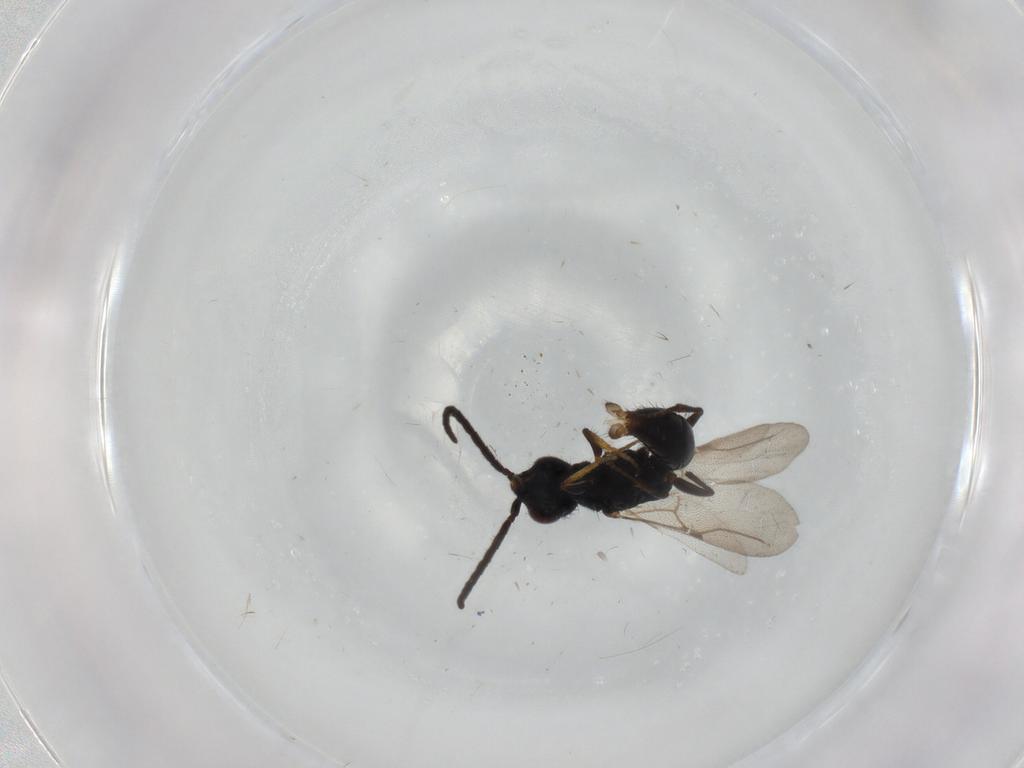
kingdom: Animalia
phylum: Arthropoda
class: Insecta
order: Hymenoptera
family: Bethylidae
